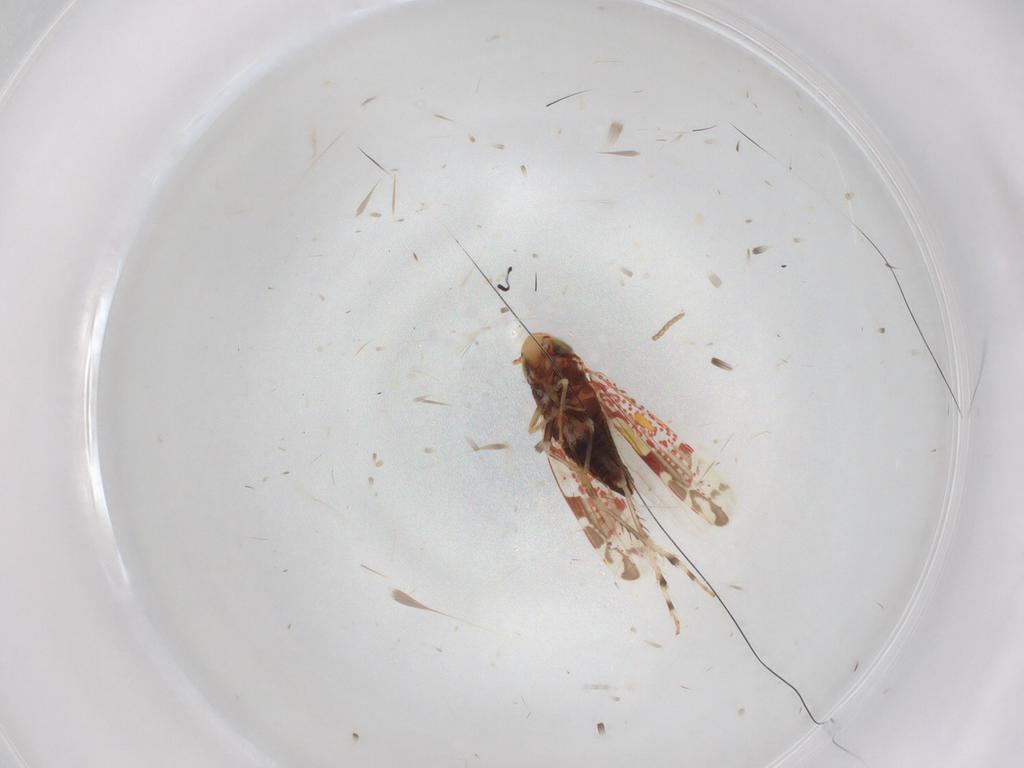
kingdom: Animalia
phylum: Arthropoda
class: Insecta
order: Hemiptera
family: Cicadellidae
